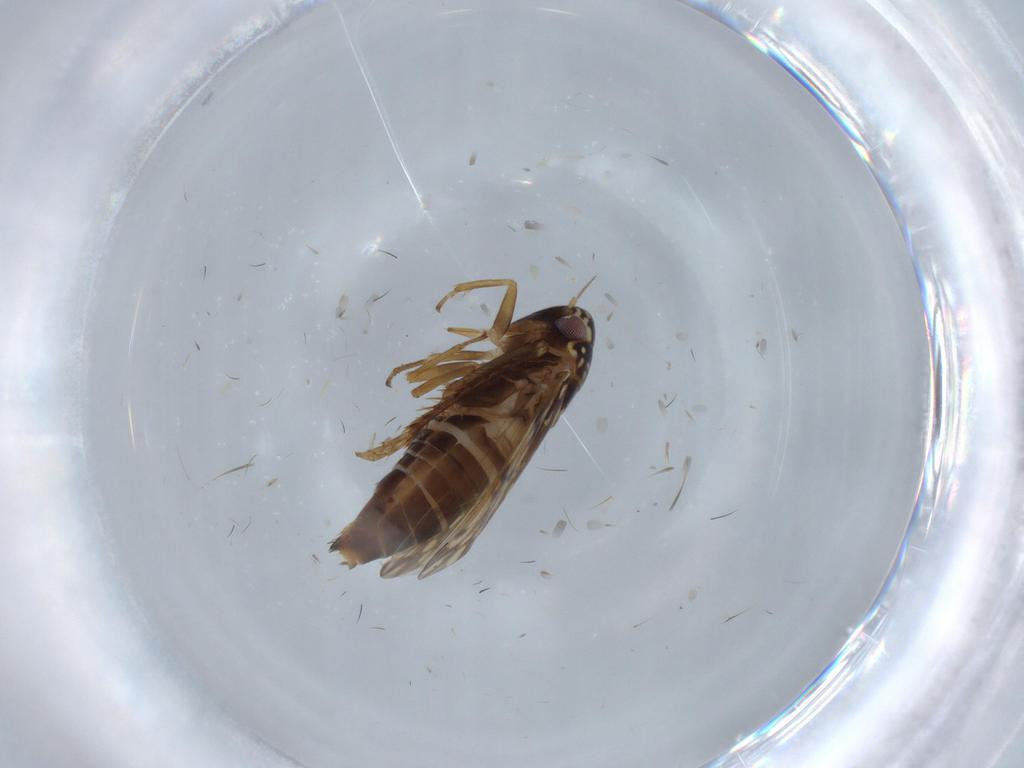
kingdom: Animalia
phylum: Arthropoda
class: Insecta
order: Hemiptera
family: Cicadellidae
